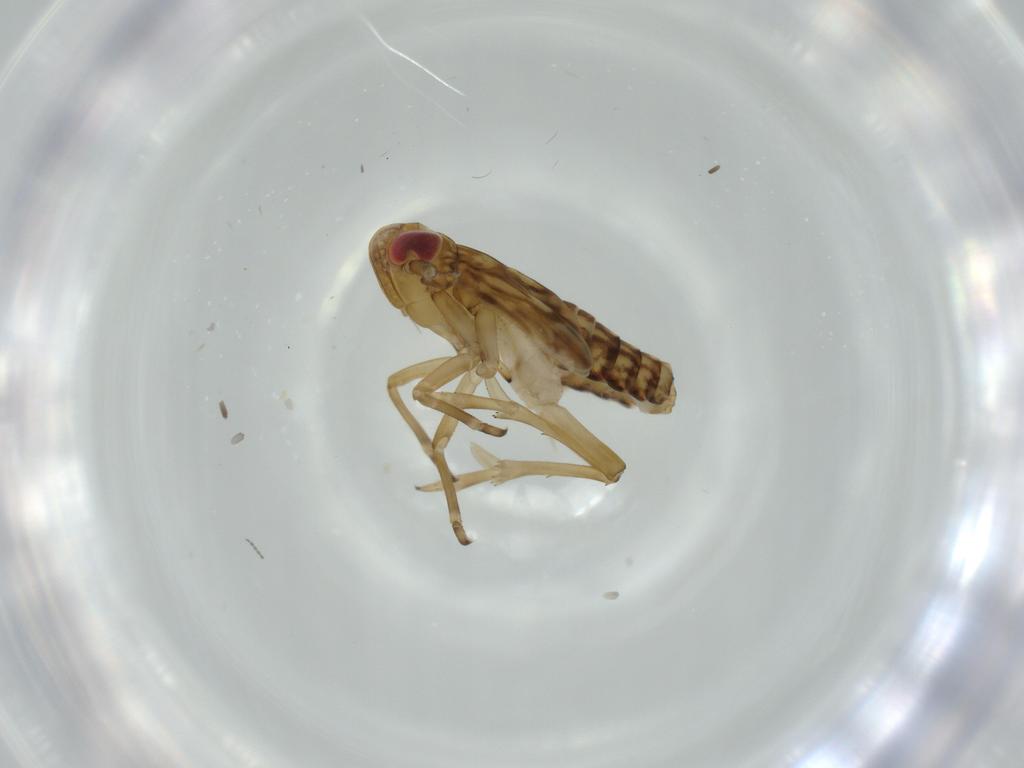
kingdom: Animalia
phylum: Arthropoda
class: Insecta
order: Hemiptera
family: Delphacidae
